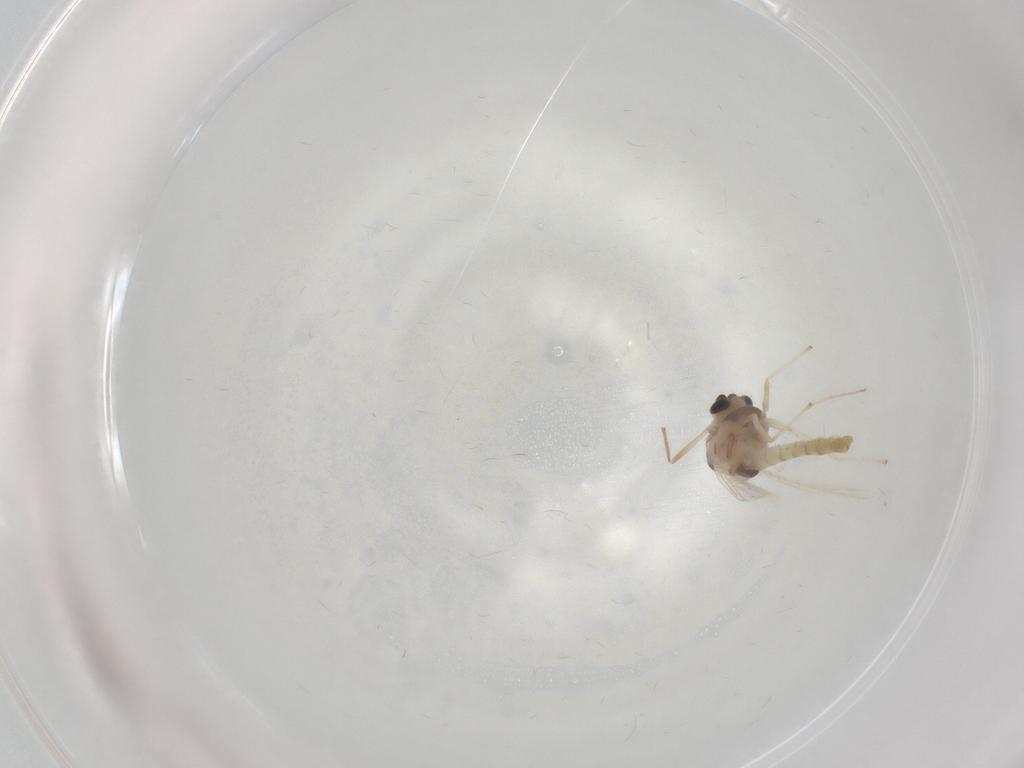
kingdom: Animalia
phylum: Arthropoda
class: Insecta
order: Diptera
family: Chironomidae
